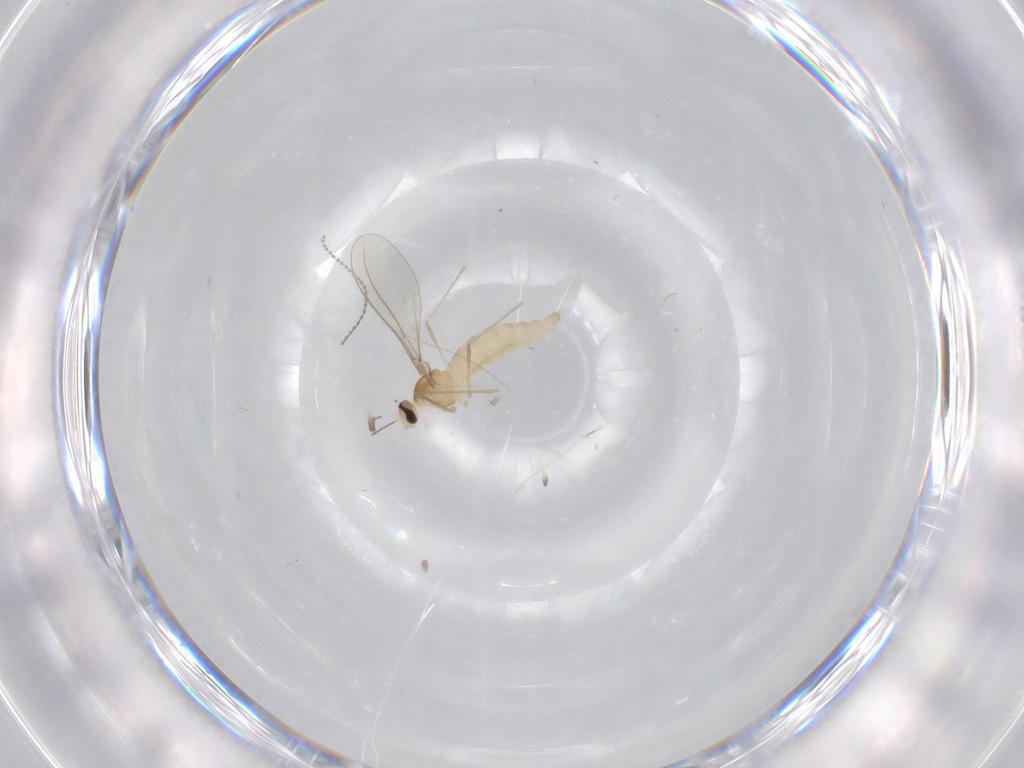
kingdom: Animalia
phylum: Arthropoda
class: Insecta
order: Diptera
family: Cecidomyiidae
